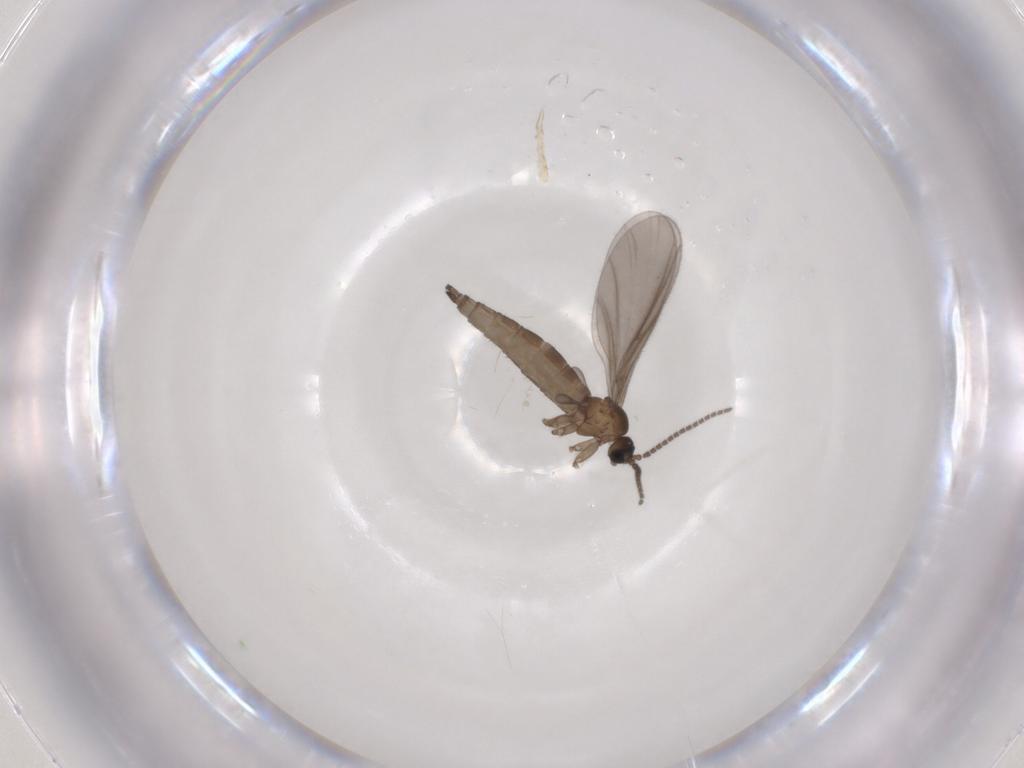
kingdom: Animalia
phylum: Arthropoda
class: Insecta
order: Diptera
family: Sciaridae
